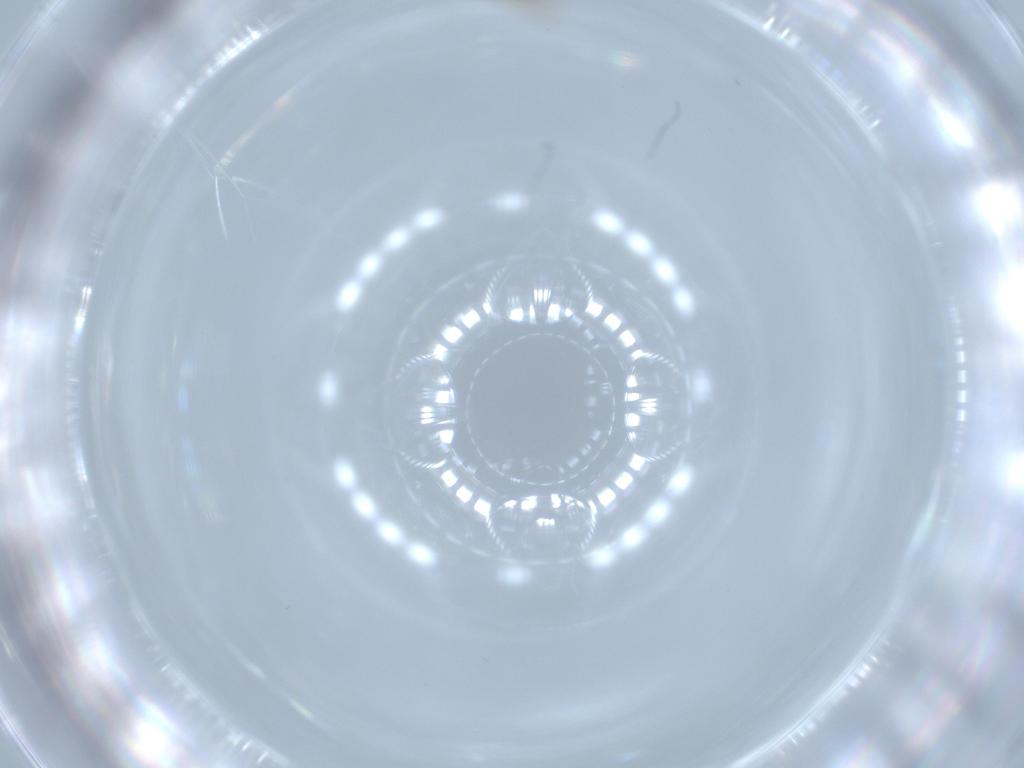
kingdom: Animalia
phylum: Arthropoda
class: Insecta
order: Diptera
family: Cecidomyiidae
